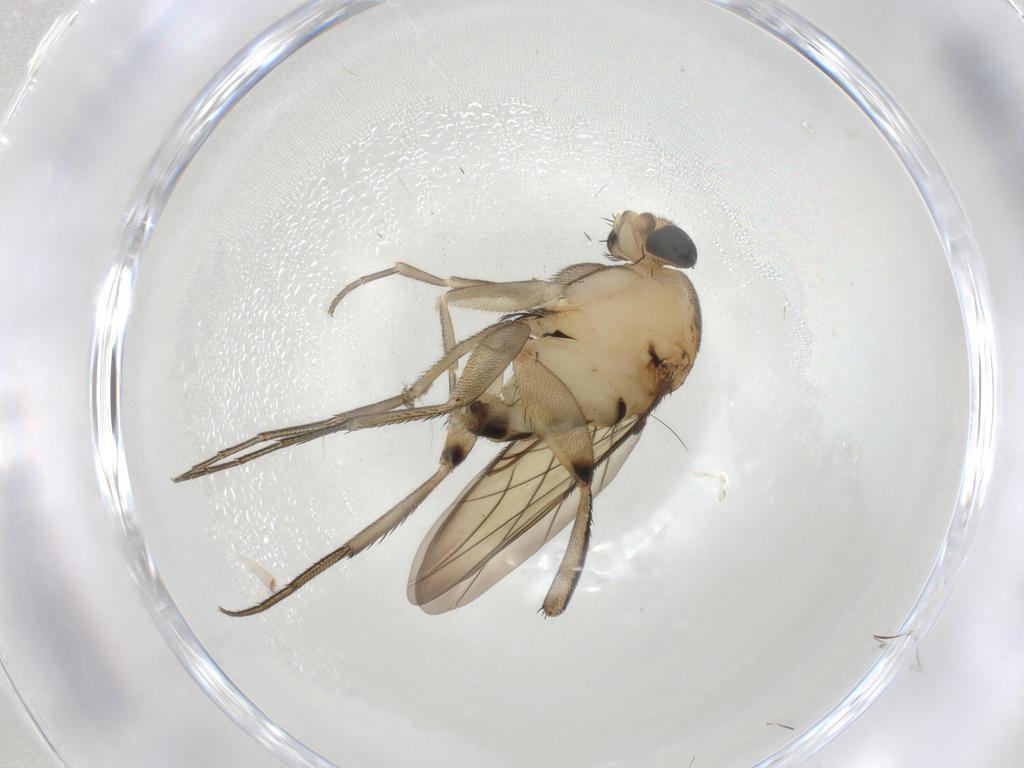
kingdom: Animalia
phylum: Arthropoda
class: Insecta
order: Diptera
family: Phoridae
